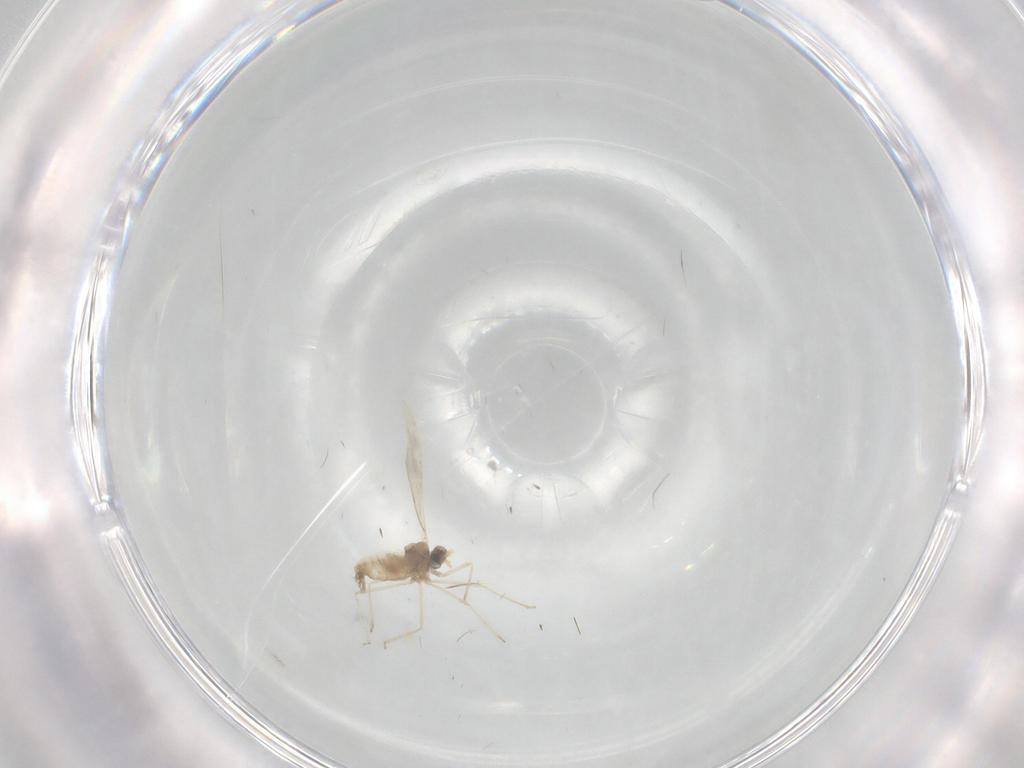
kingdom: Animalia
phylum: Arthropoda
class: Insecta
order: Diptera
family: Cecidomyiidae
